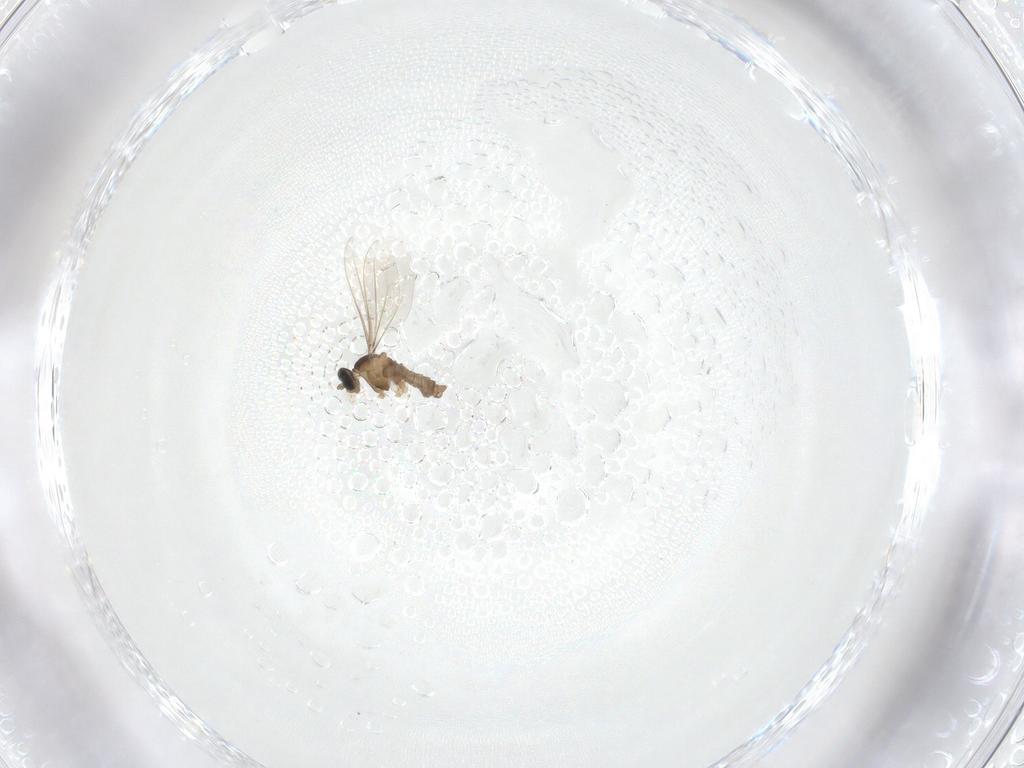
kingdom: Animalia
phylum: Arthropoda
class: Insecta
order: Diptera
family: Cecidomyiidae
